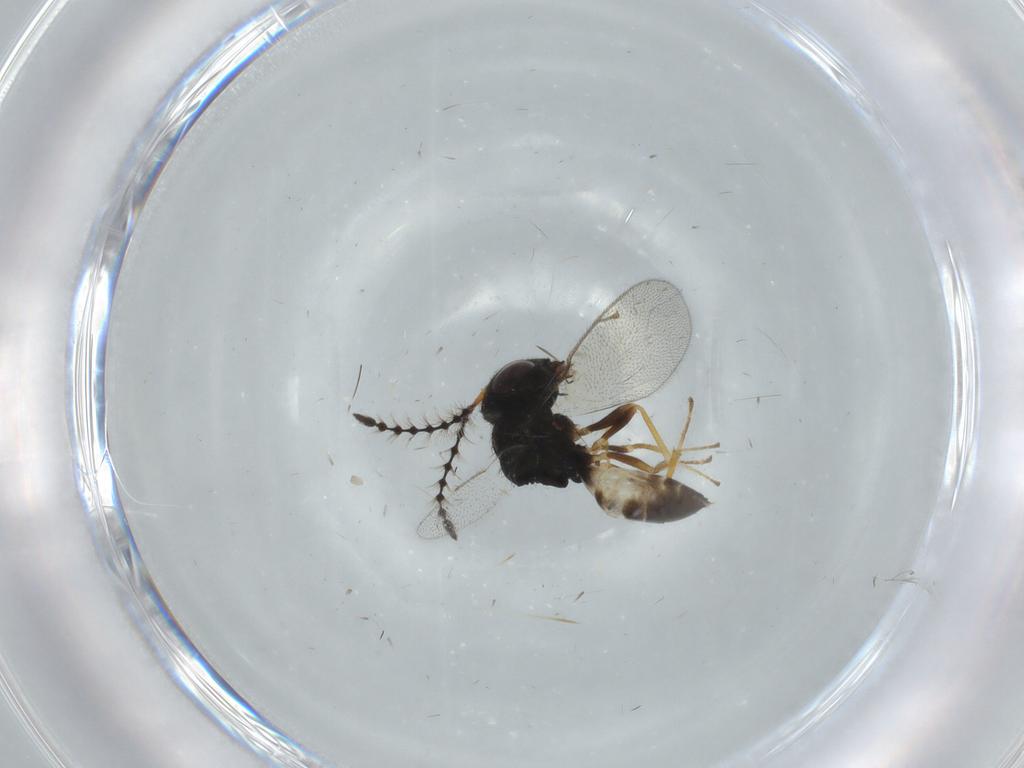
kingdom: Animalia
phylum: Arthropoda
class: Insecta
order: Hymenoptera
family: Pteromalidae
